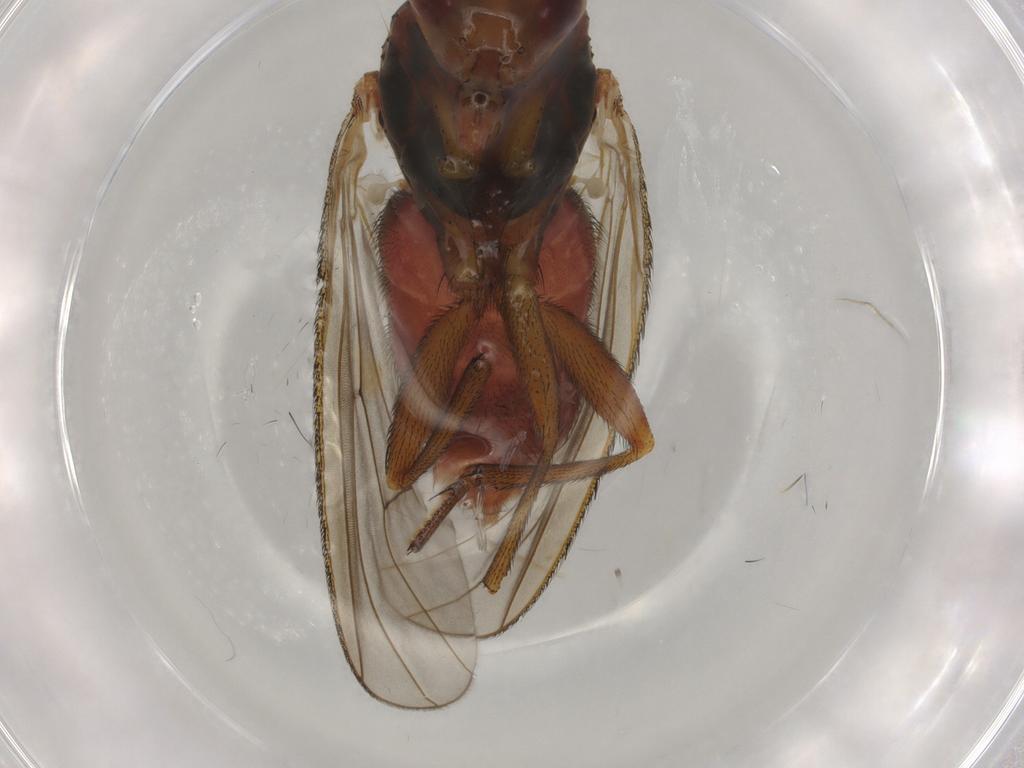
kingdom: Animalia
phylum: Arthropoda
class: Insecta
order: Diptera
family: Heleomyzidae
